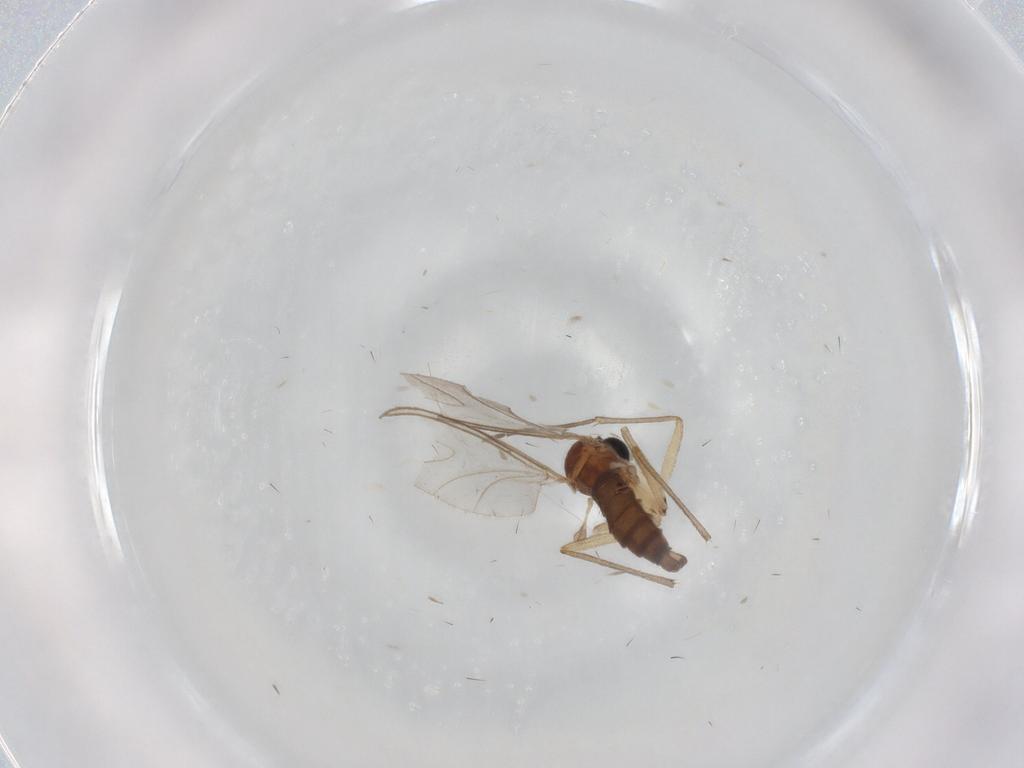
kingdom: Animalia
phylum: Arthropoda
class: Insecta
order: Diptera
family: Sciaridae
